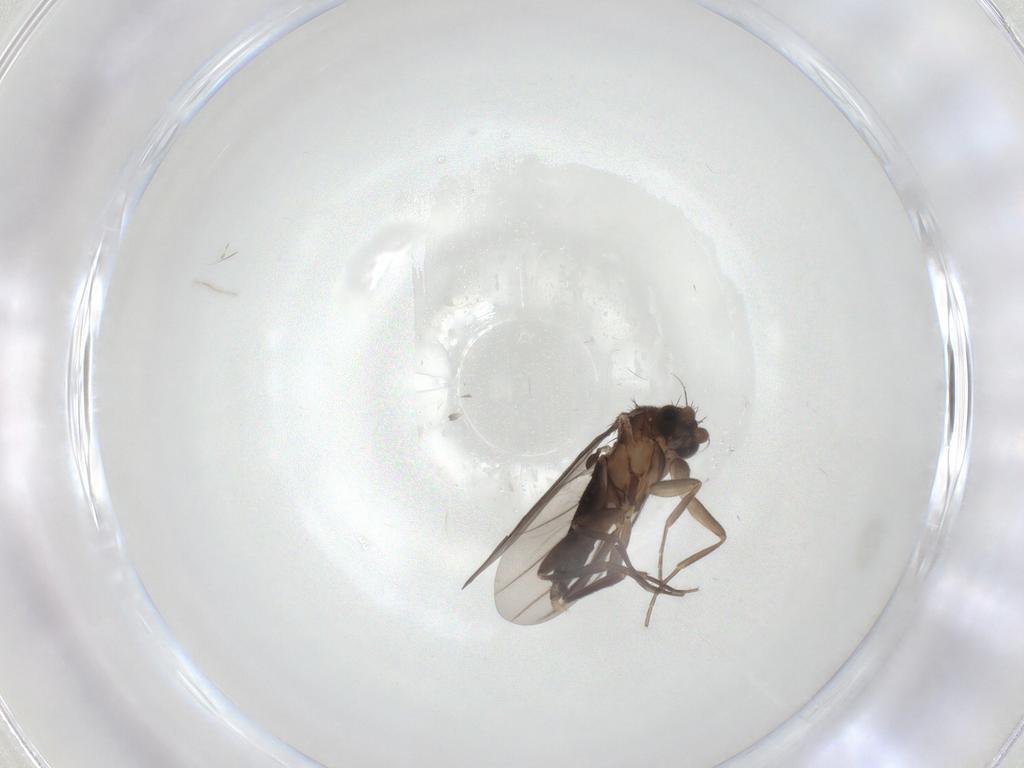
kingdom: Animalia
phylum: Arthropoda
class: Insecta
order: Diptera
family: Phoridae
